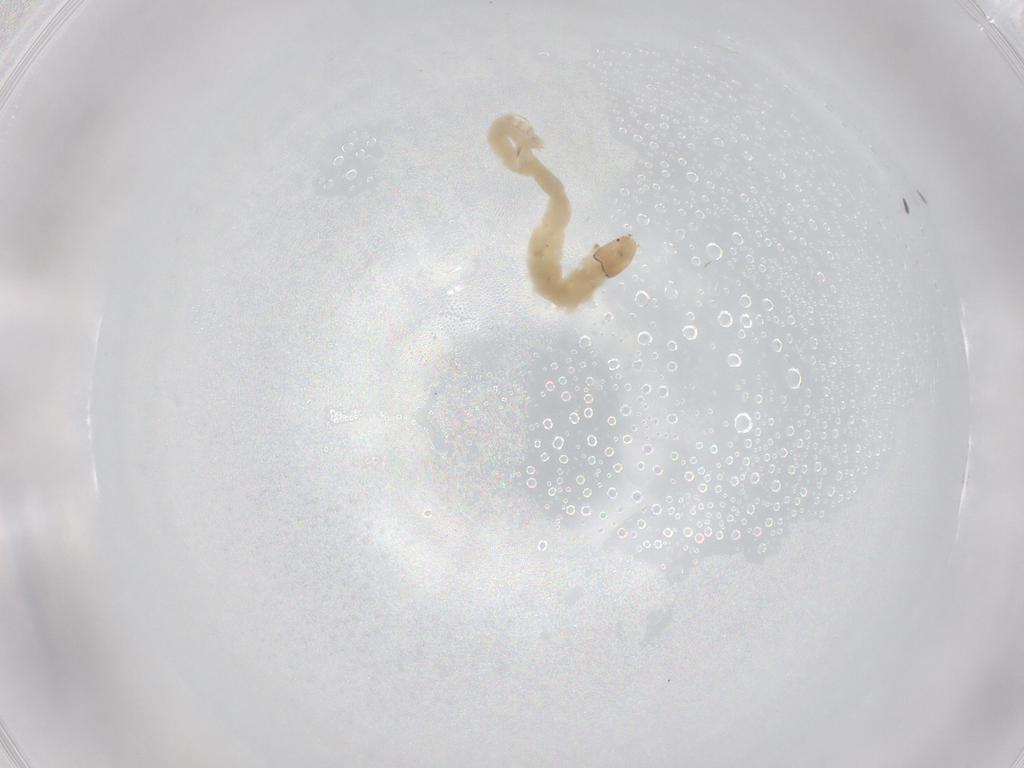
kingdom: Animalia
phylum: Arthropoda
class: Insecta
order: Diptera
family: Chironomidae
